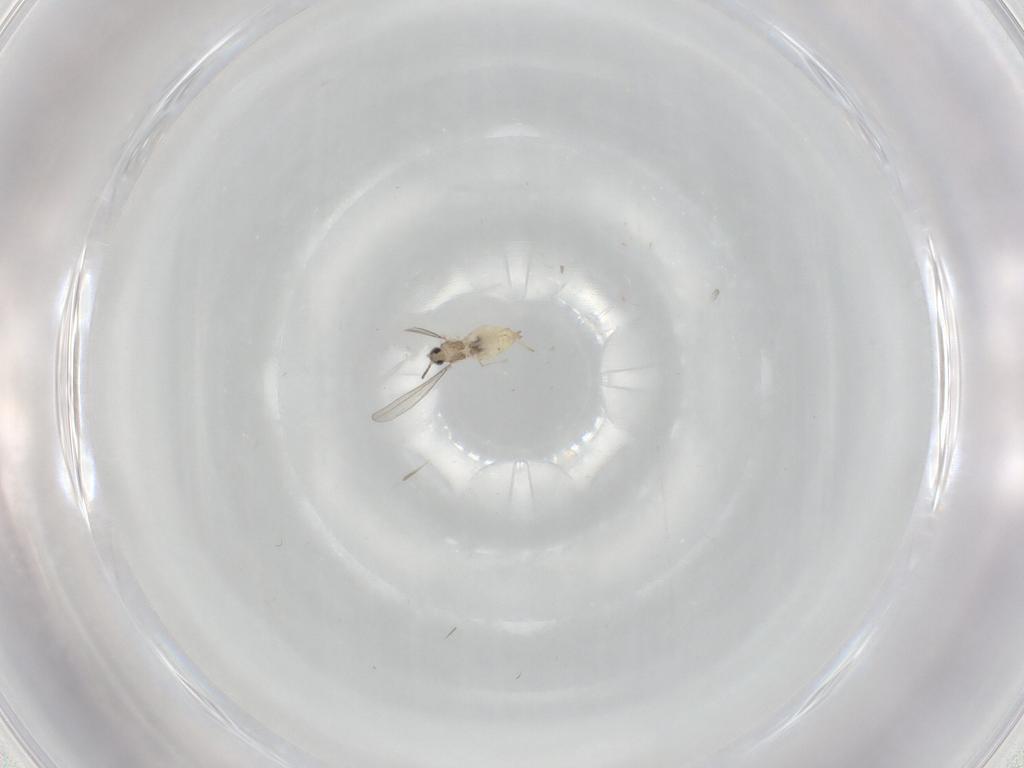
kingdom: Animalia
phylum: Arthropoda
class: Insecta
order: Diptera
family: Cecidomyiidae
